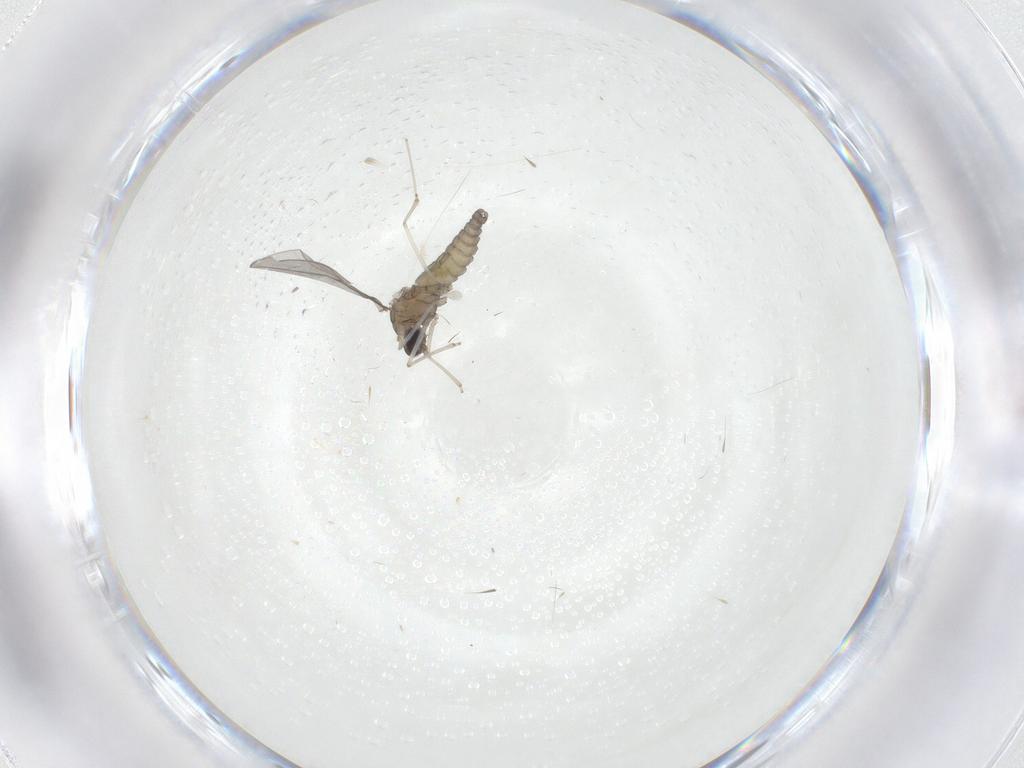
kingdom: Animalia
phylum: Arthropoda
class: Insecta
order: Diptera
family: Cecidomyiidae
